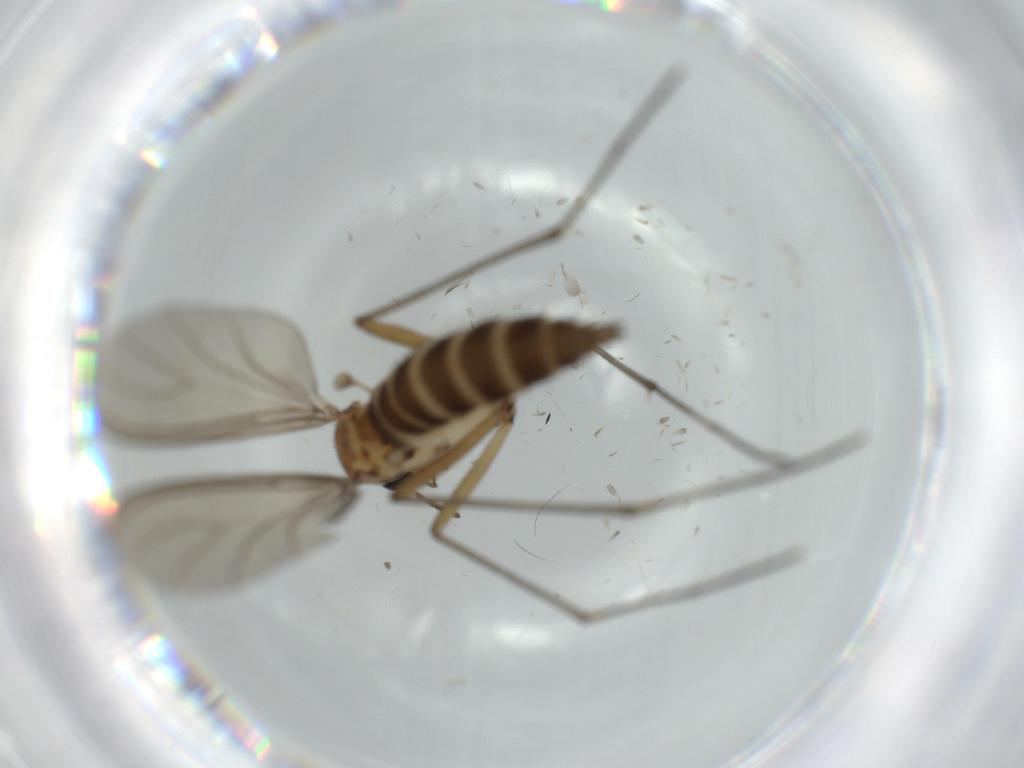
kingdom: Animalia
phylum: Arthropoda
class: Insecta
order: Diptera
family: Sciaridae
